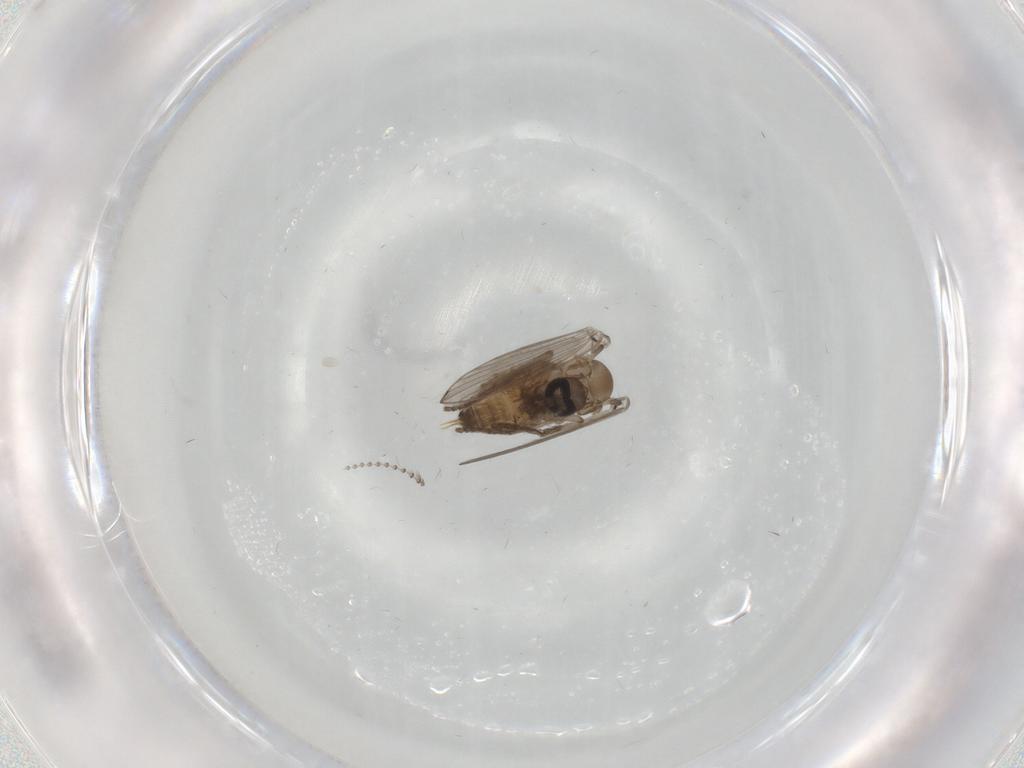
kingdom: Animalia
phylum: Arthropoda
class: Insecta
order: Diptera
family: Psychodidae
